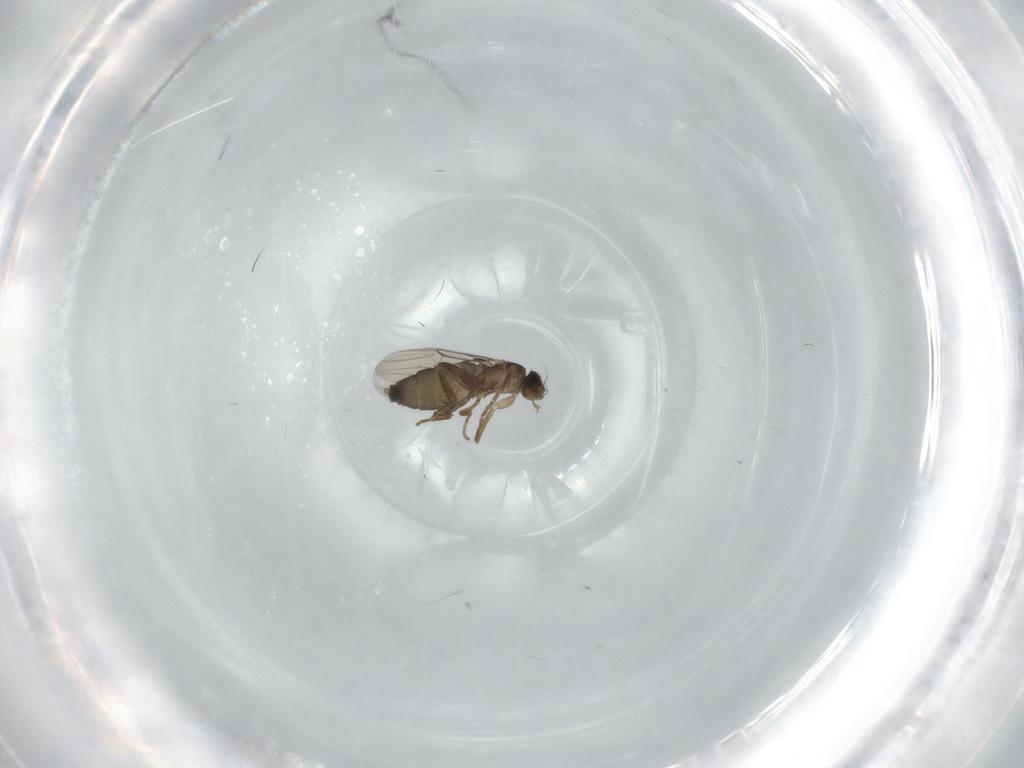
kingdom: Animalia
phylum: Arthropoda
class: Insecta
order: Diptera
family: Phoridae
